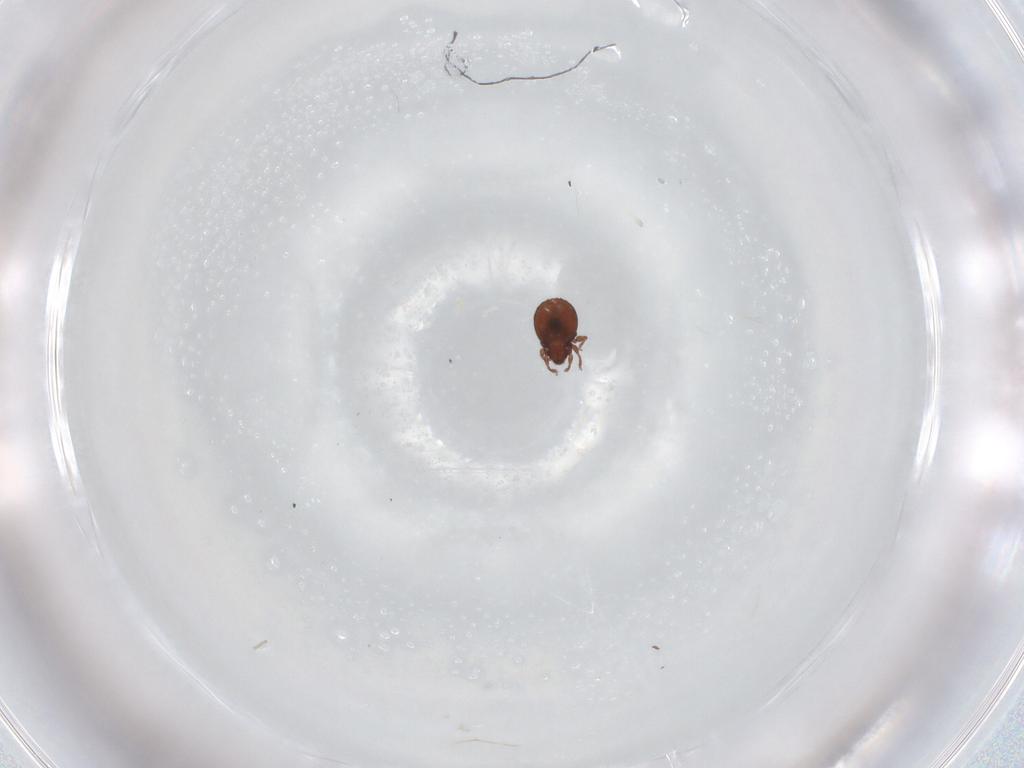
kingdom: Animalia
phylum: Arthropoda
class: Arachnida
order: Sarcoptiformes
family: Scheloribatidae
